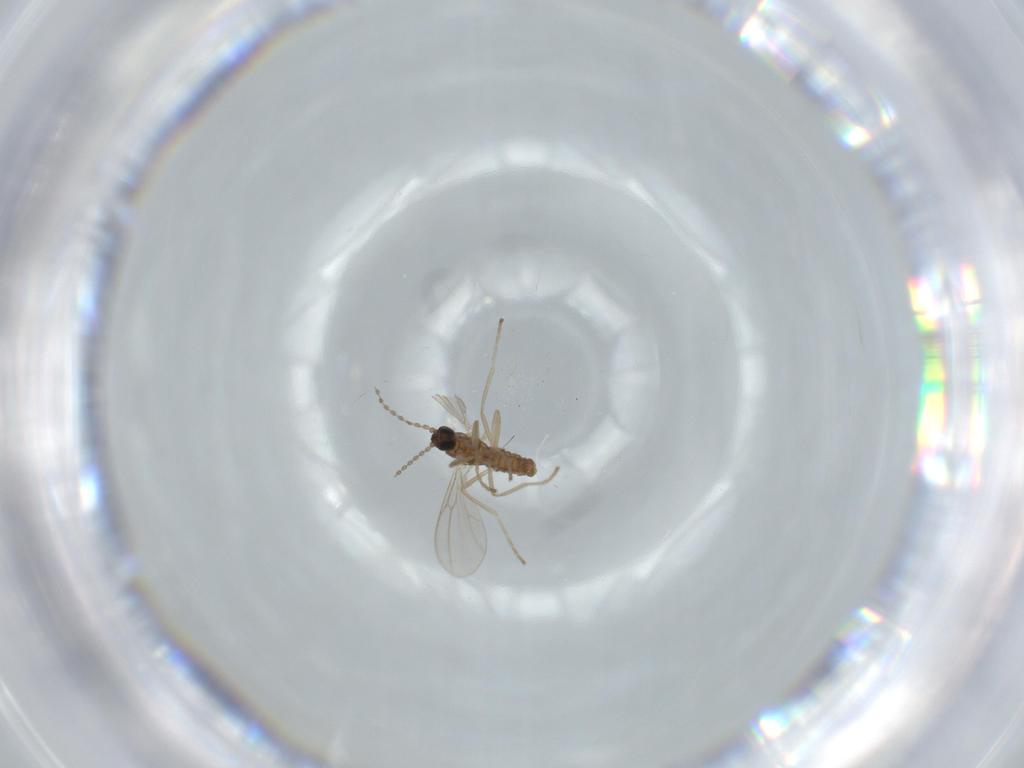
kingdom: Animalia
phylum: Arthropoda
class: Insecta
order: Diptera
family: Cecidomyiidae
